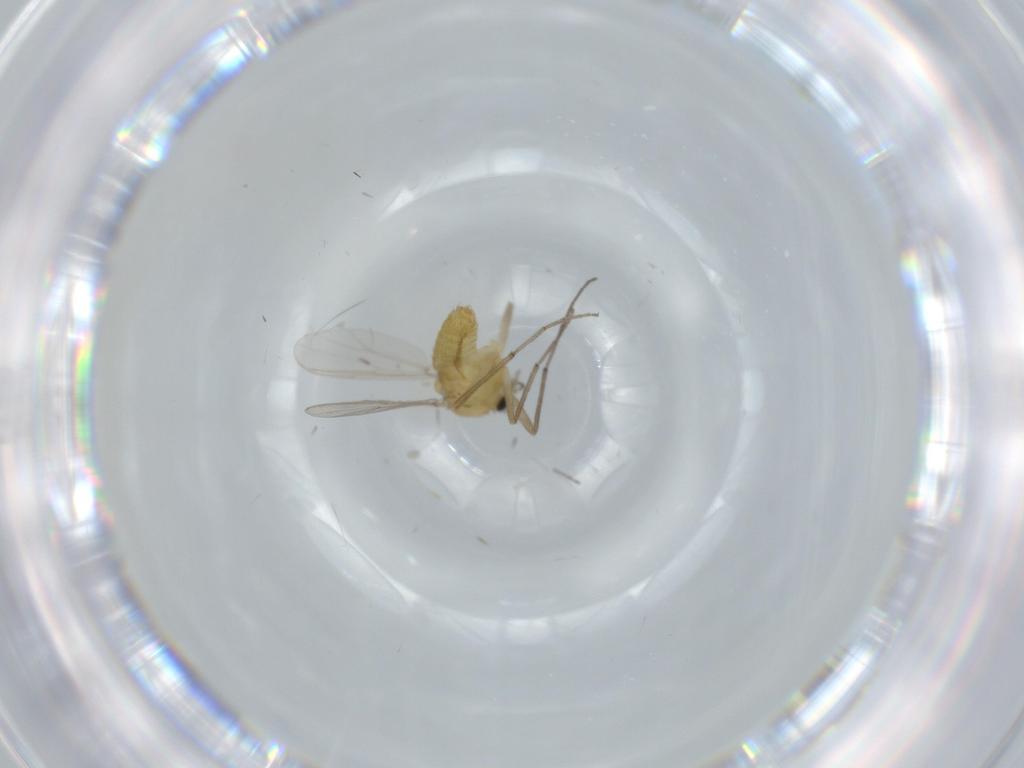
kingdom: Animalia
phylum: Arthropoda
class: Insecta
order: Diptera
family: Chironomidae
